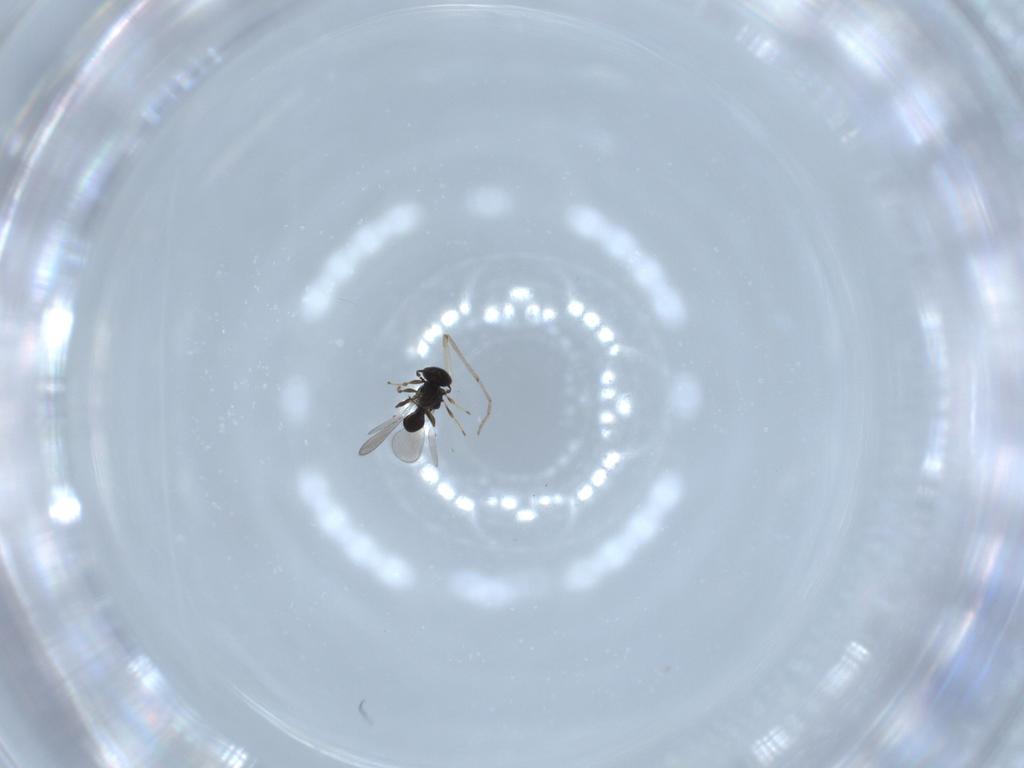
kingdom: Animalia
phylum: Arthropoda
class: Insecta
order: Hymenoptera
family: Platygastridae
